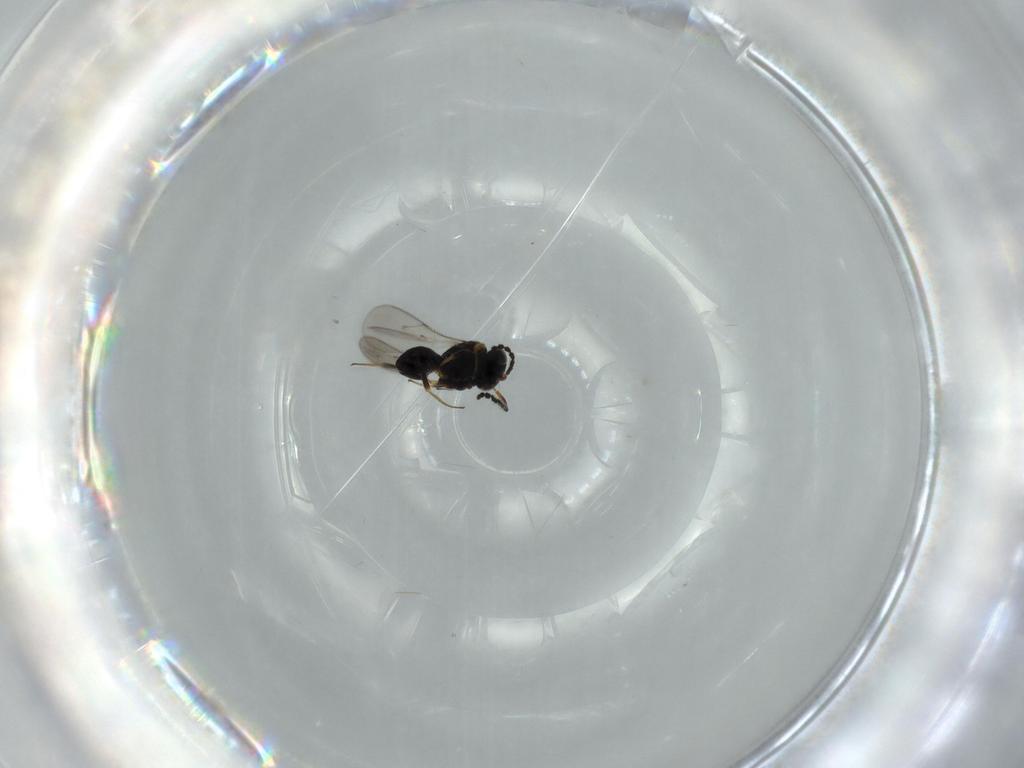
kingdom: Animalia
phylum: Arthropoda
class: Insecta
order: Hymenoptera
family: Scelionidae
